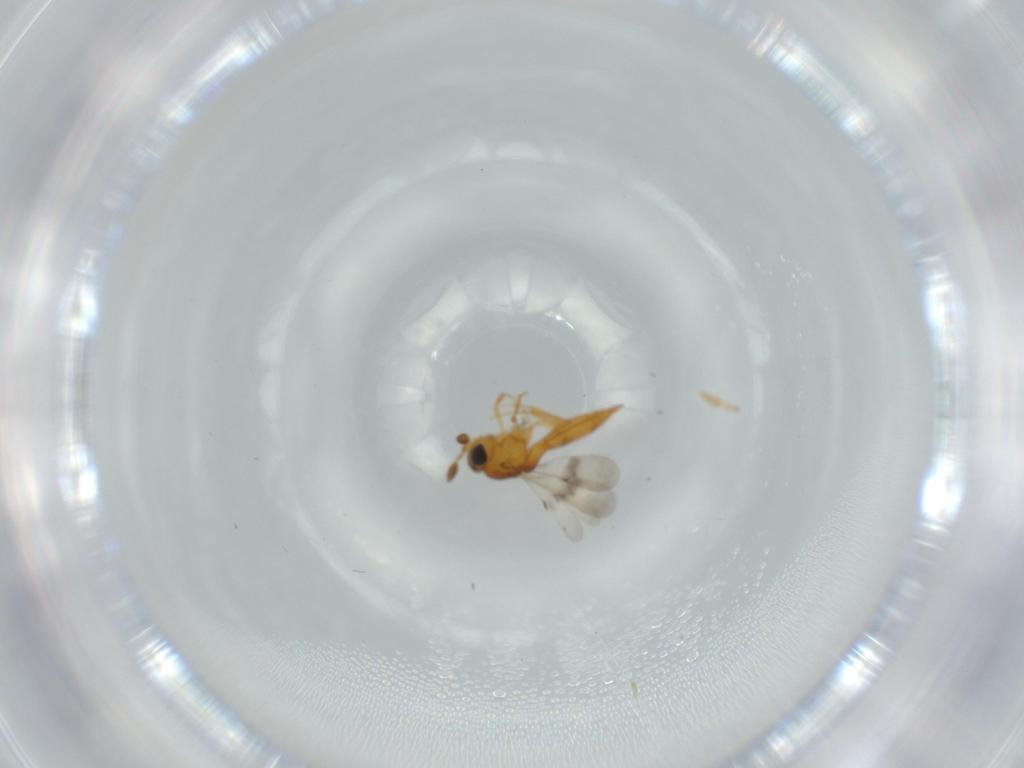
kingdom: Animalia
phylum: Arthropoda
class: Insecta
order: Hymenoptera
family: Scelionidae
